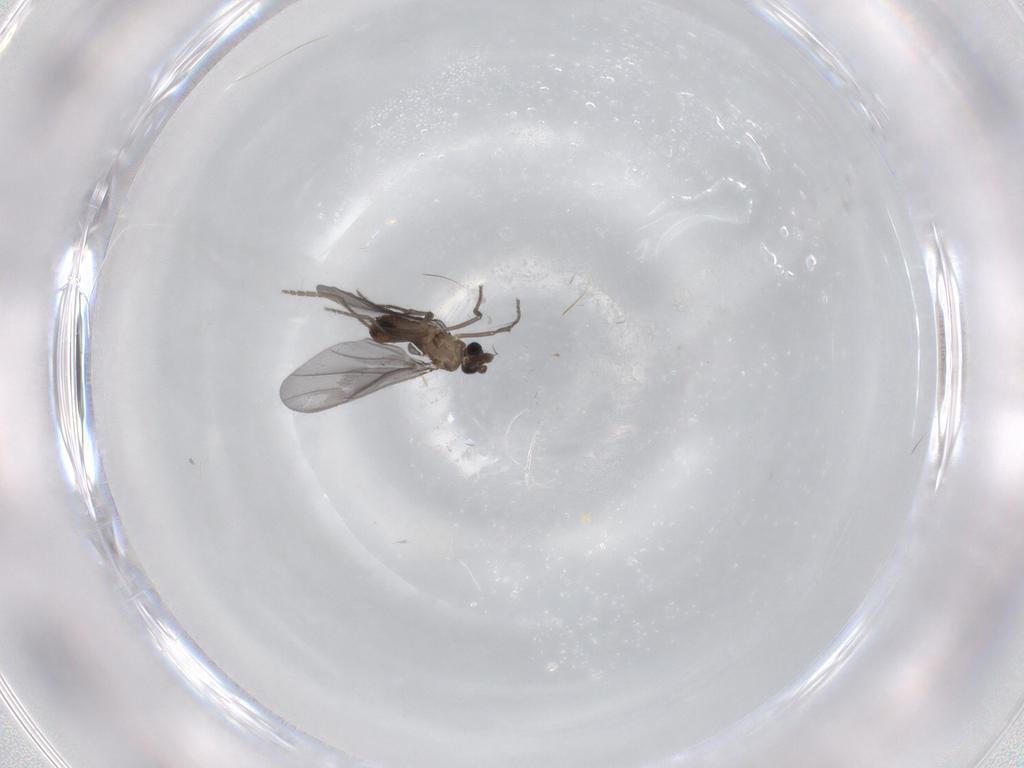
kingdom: Animalia
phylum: Arthropoda
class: Insecta
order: Diptera
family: Phoridae
